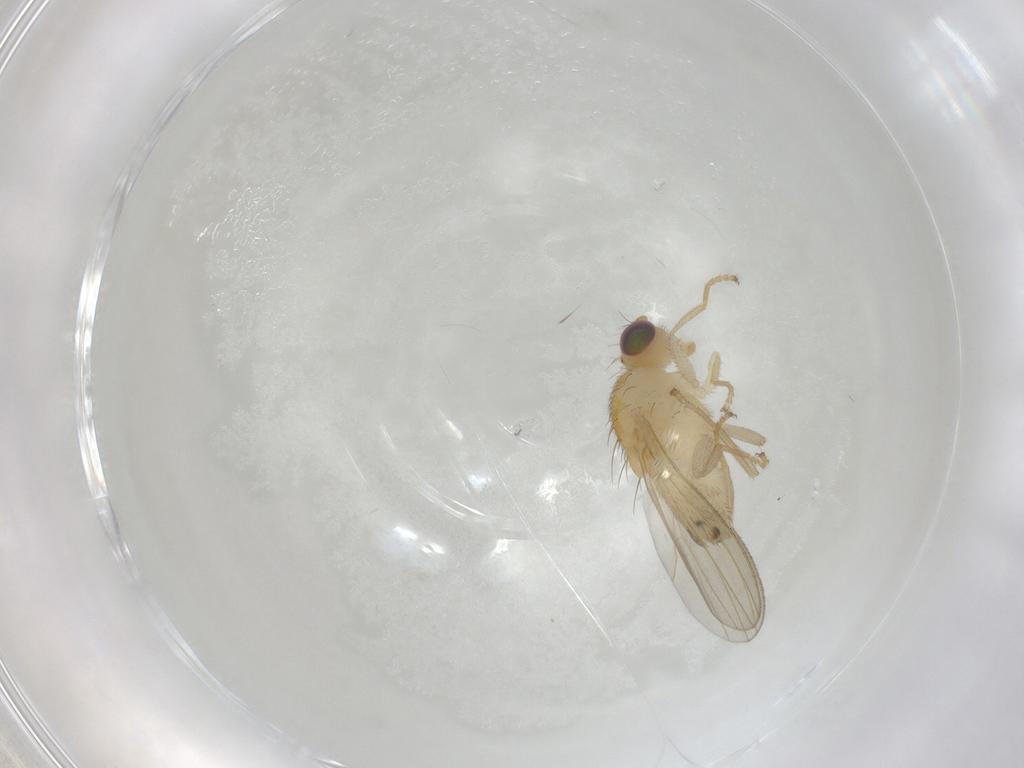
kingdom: Animalia
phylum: Arthropoda
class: Insecta
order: Diptera
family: Chyromyidae
